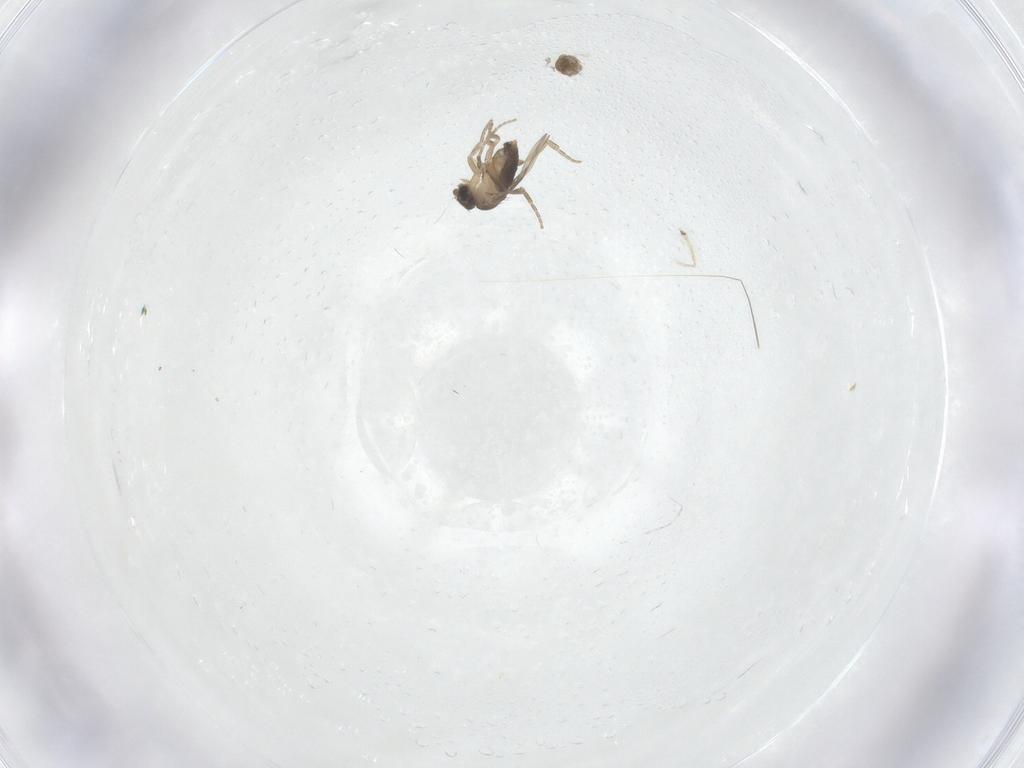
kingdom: Animalia
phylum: Arthropoda
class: Insecta
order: Diptera
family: Phoridae
